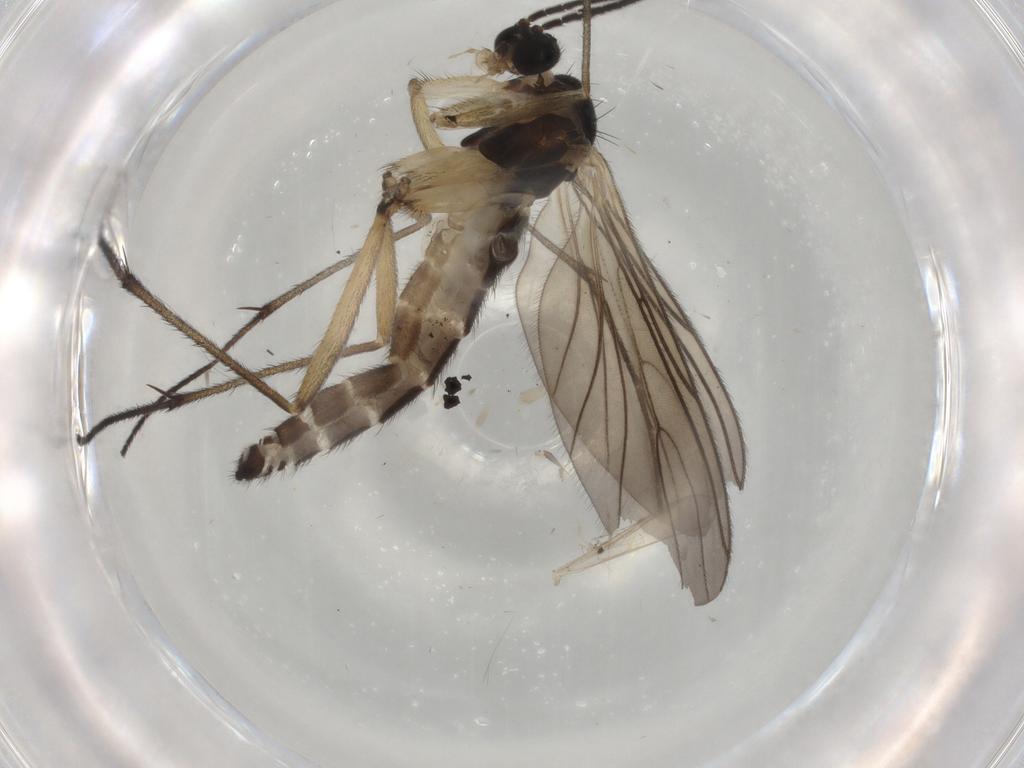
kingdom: Animalia
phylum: Arthropoda
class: Insecta
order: Diptera
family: Sciaridae
